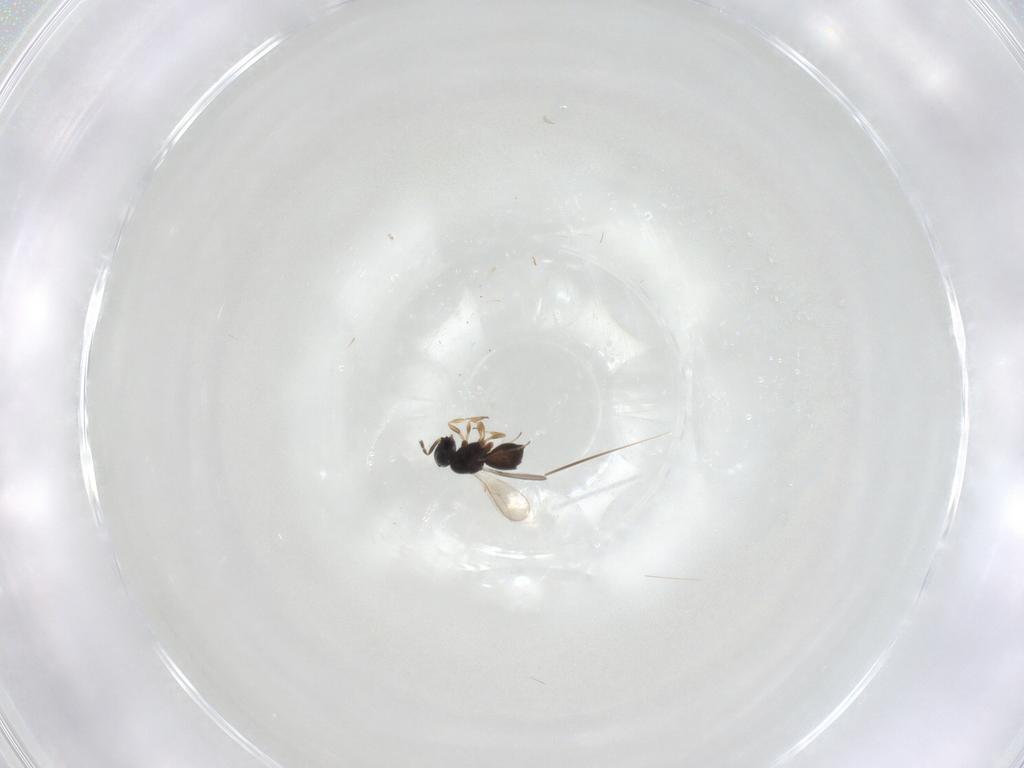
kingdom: Animalia
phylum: Arthropoda
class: Insecta
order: Hymenoptera
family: Scelionidae
